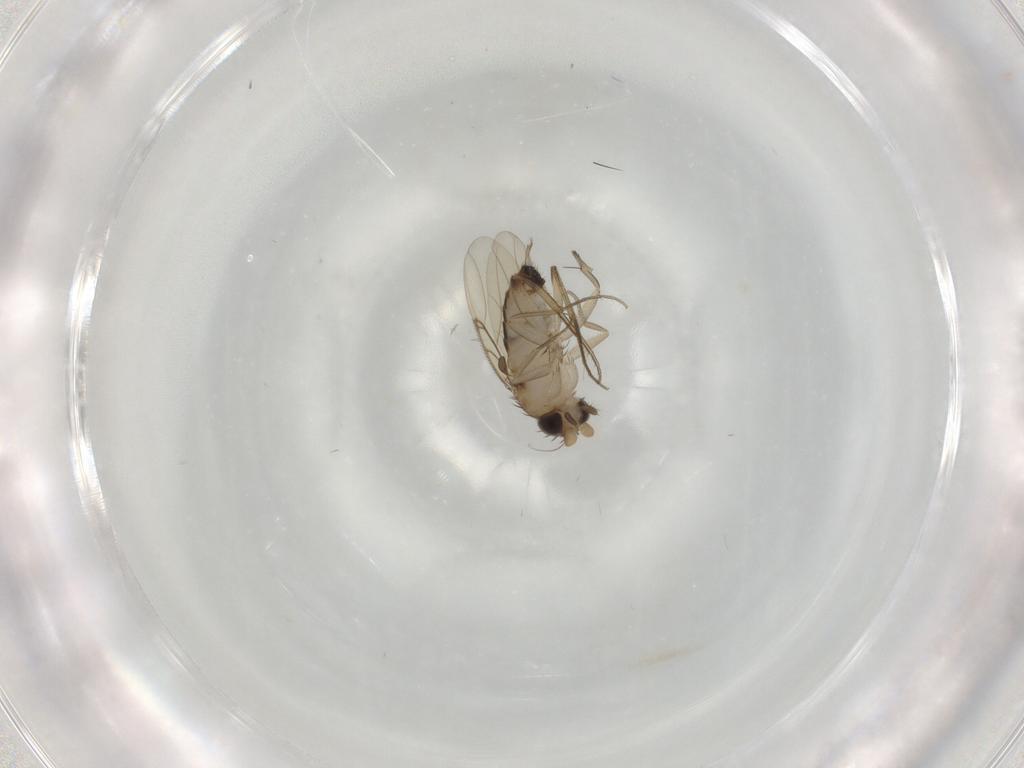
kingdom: Animalia
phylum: Arthropoda
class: Insecta
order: Diptera
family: Phoridae
